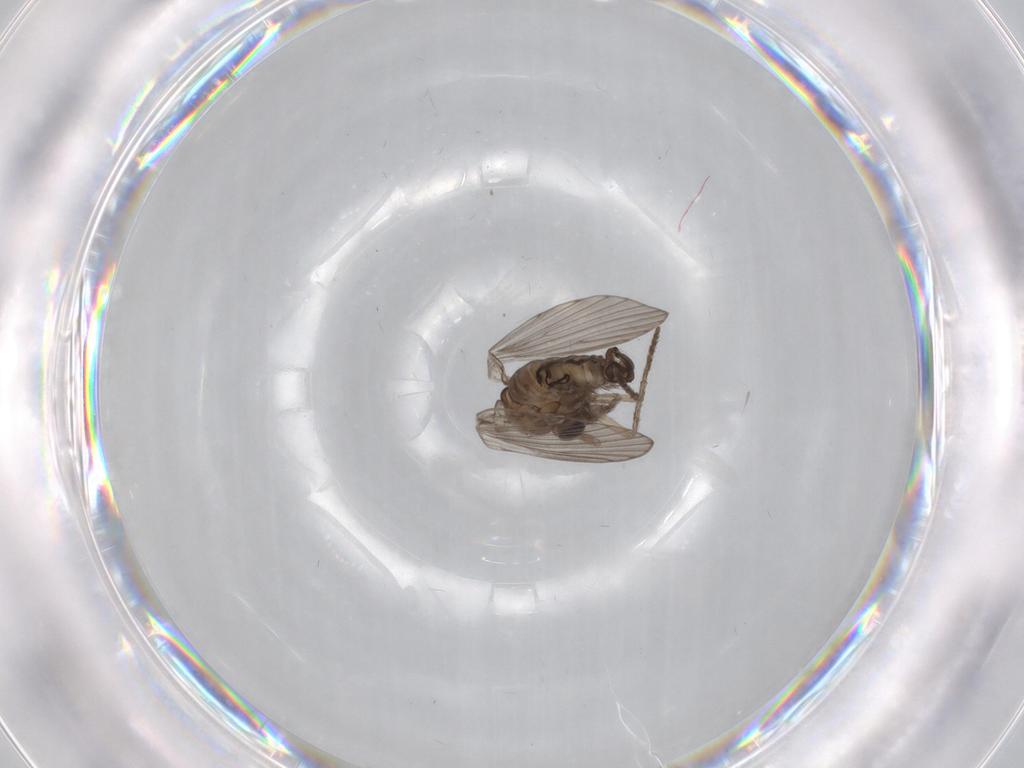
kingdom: Animalia
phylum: Arthropoda
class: Insecta
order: Diptera
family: Psychodidae
